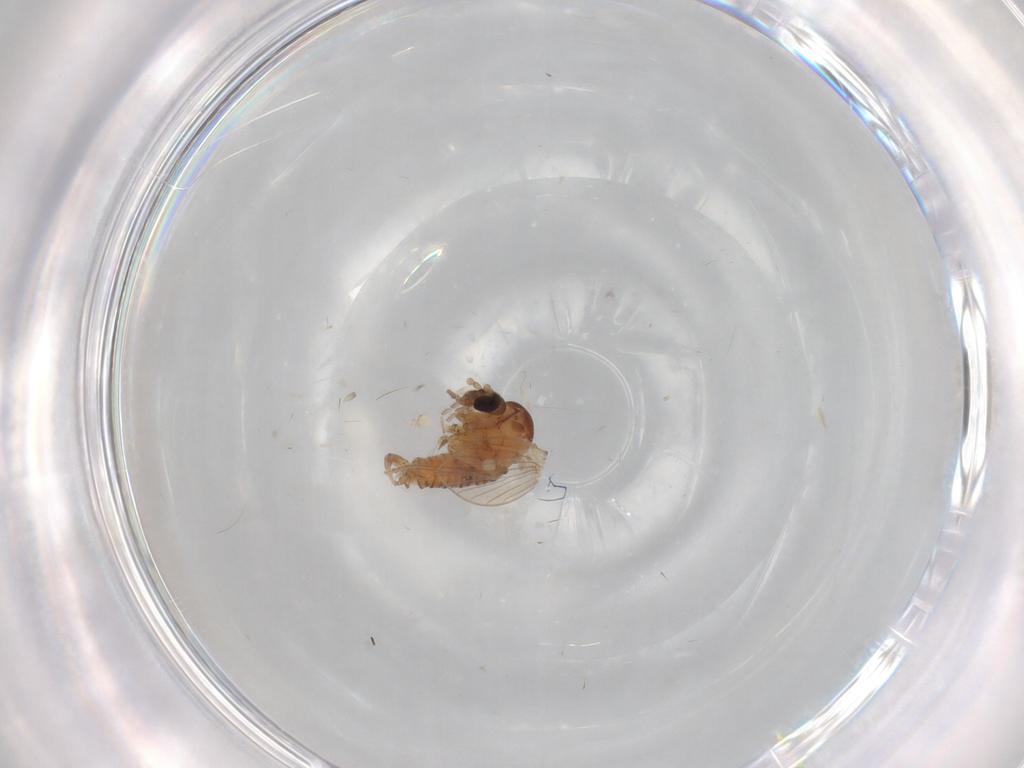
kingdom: Animalia
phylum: Arthropoda
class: Insecta
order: Diptera
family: Psychodidae
